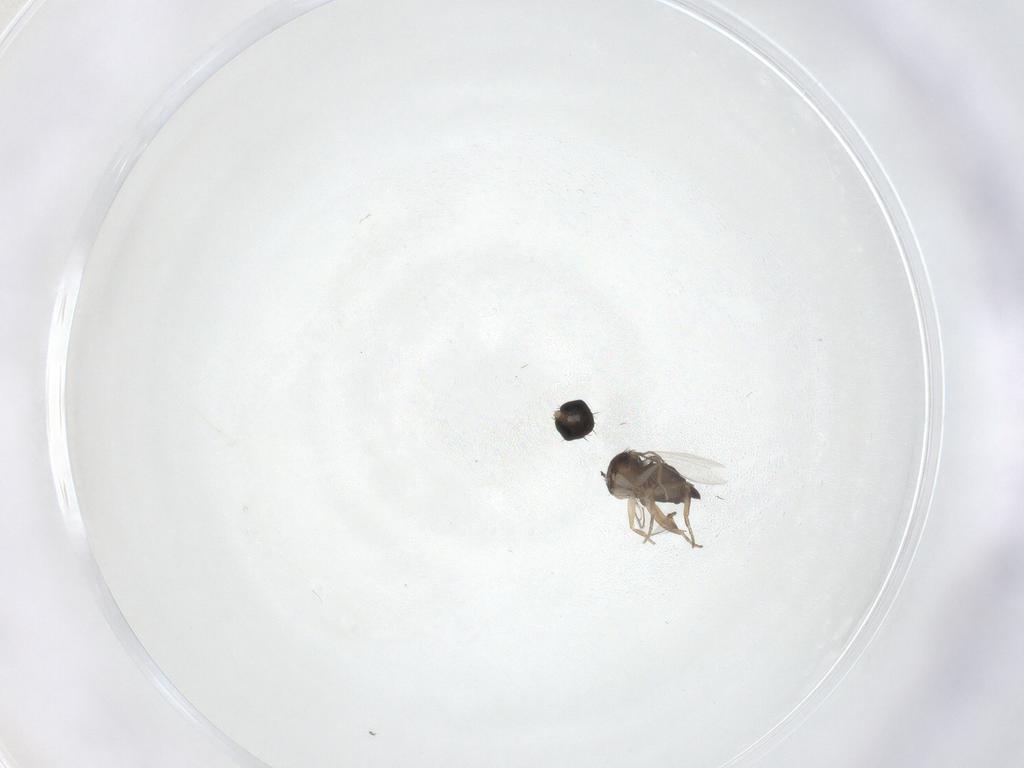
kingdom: Animalia
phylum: Arthropoda
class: Insecta
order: Diptera
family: Phoridae
